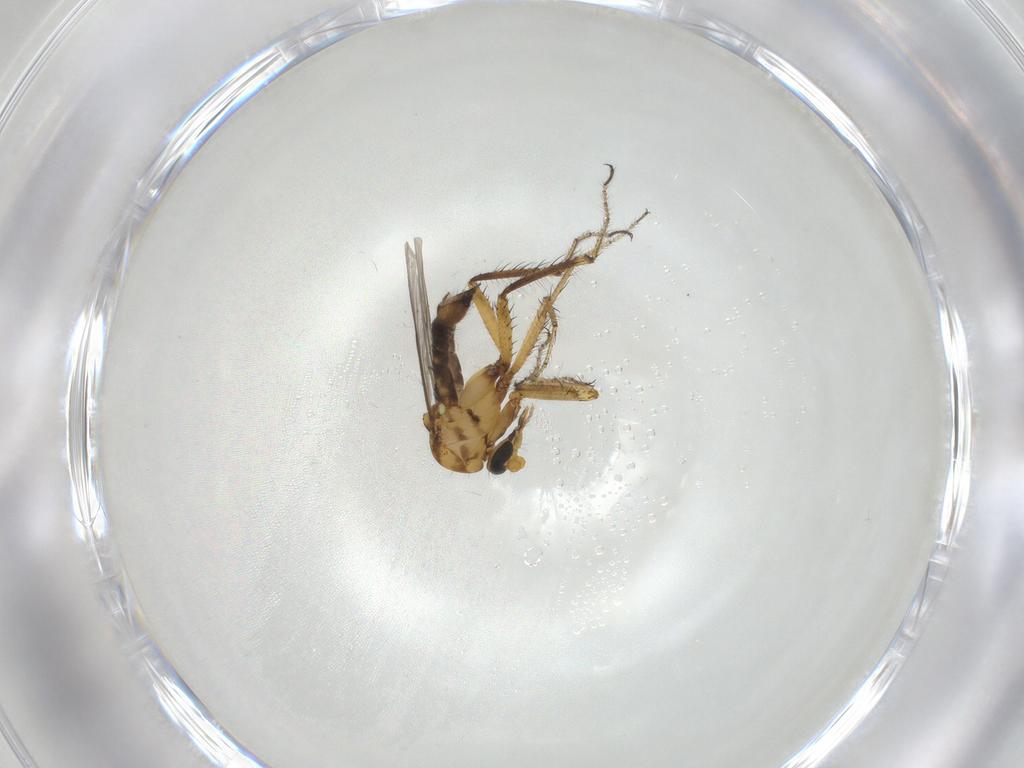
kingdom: Animalia
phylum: Arthropoda
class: Insecta
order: Diptera
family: Ceratopogonidae
